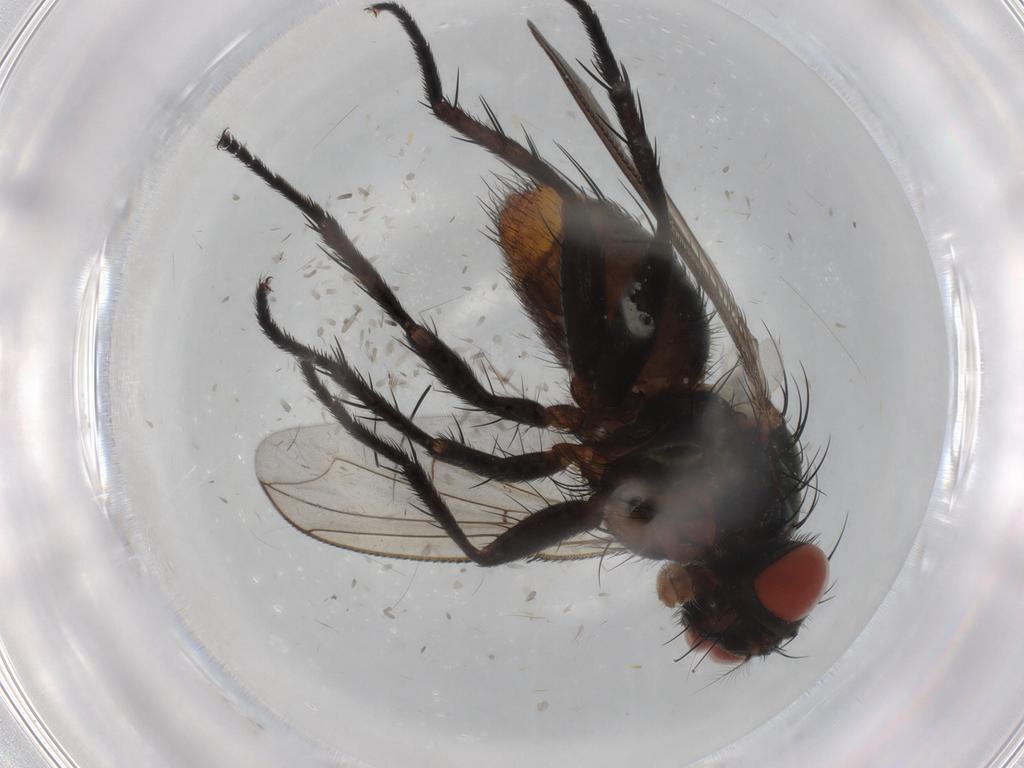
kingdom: Animalia
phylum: Arthropoda
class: Insecta
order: Diptera
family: Sarcophagidae
